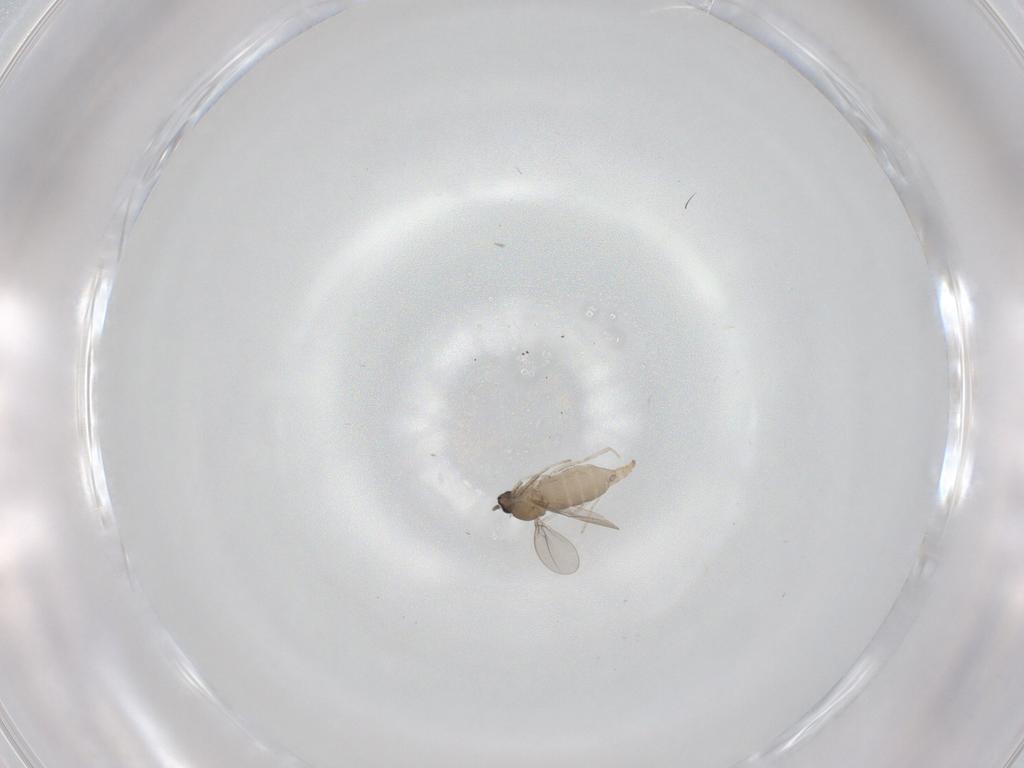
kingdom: Animalia
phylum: Arthropoda
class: Insecta
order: Diptera
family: Cecidomyiidae
